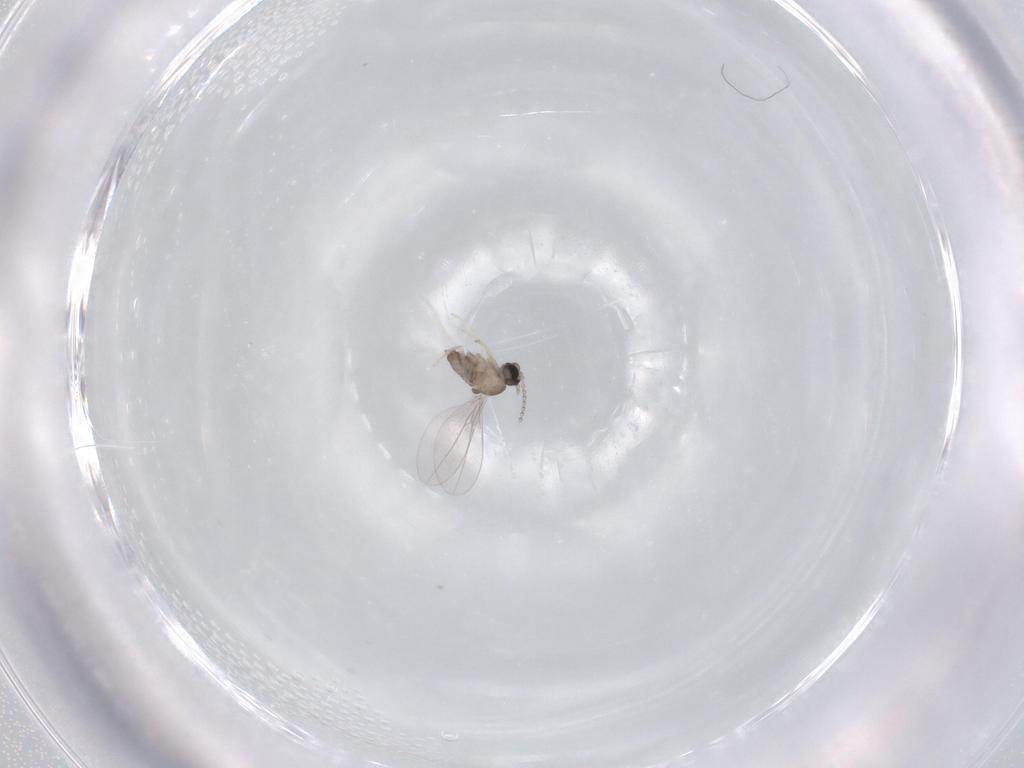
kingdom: Animalia
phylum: Arthropoda
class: Insecta
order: Diptera
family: Cecidomyiidae
